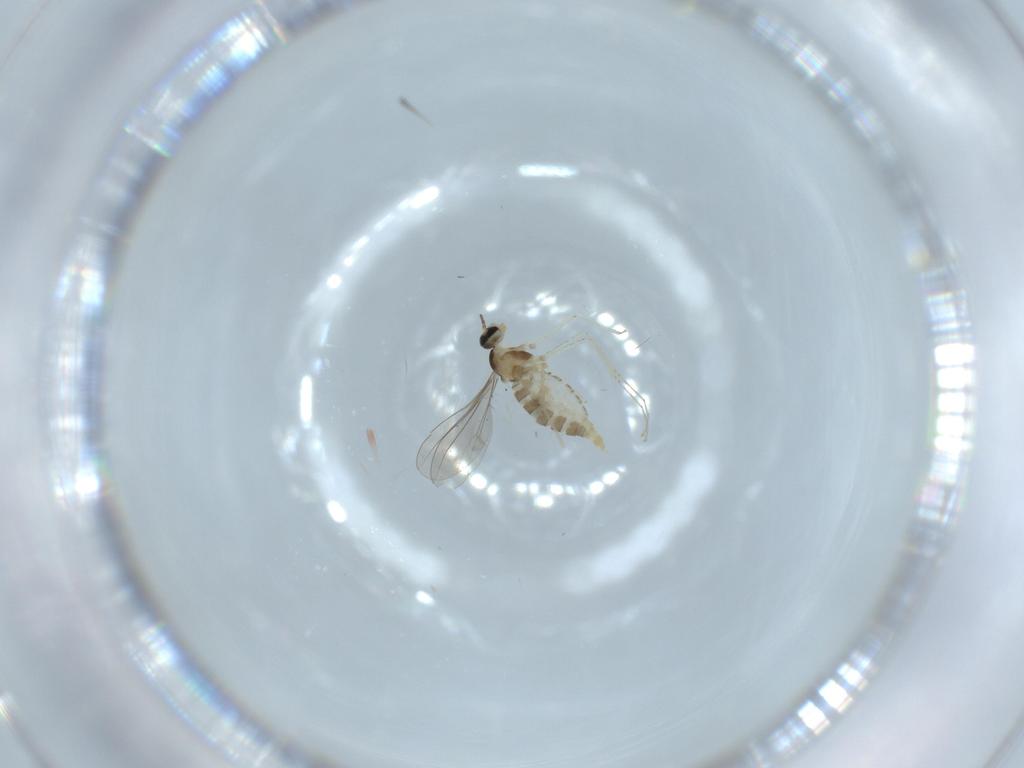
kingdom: Animalia
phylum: Arthropoda
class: Insecta
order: Diptera
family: Cecidomyiidae
